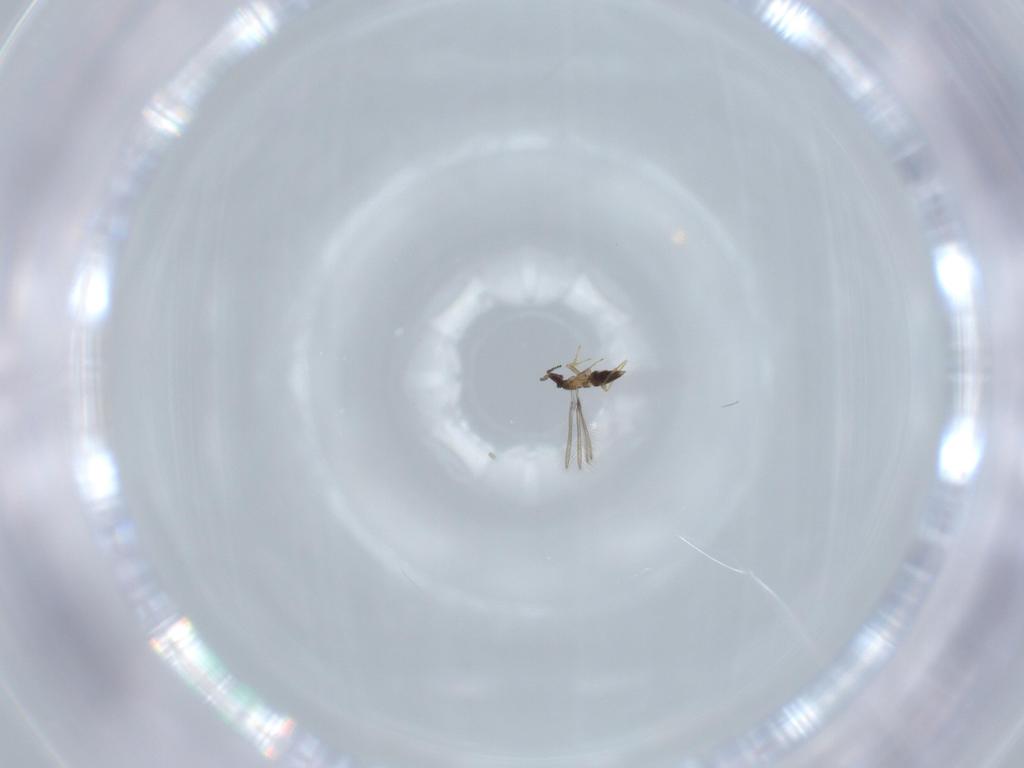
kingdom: Animalia
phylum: Arthropoda
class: Insecta
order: Hymenoptera
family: Mymaridae
